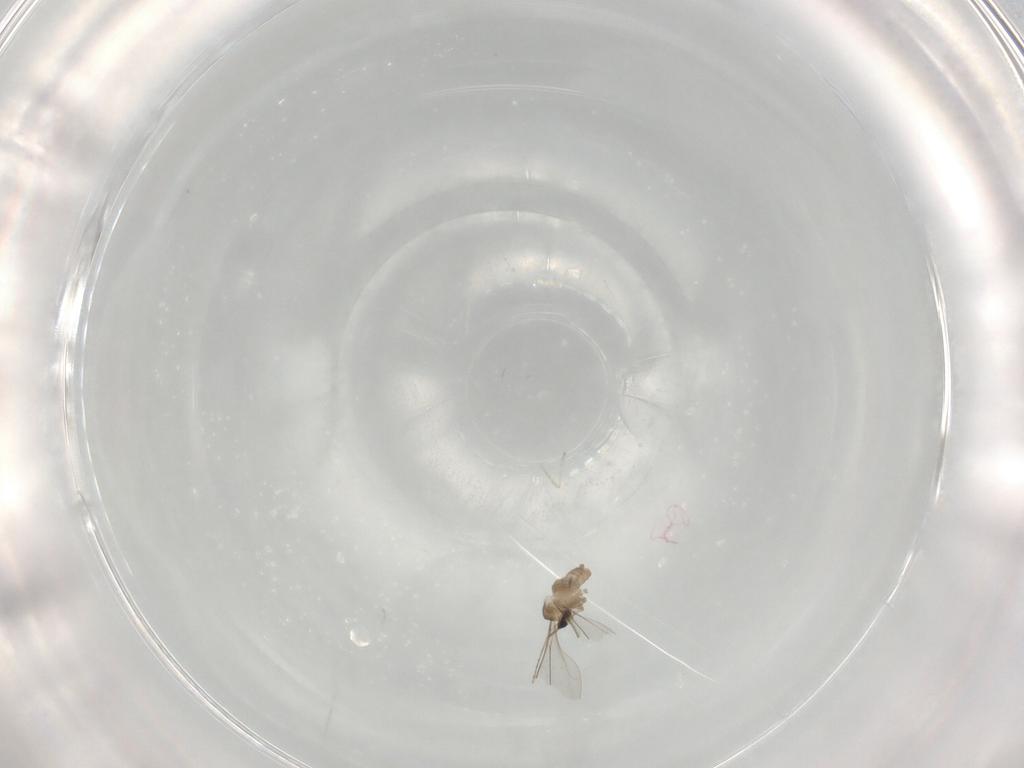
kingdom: Animalia
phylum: Arthropoda
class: Insecta
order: Diptera
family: Cecidomyiidae
